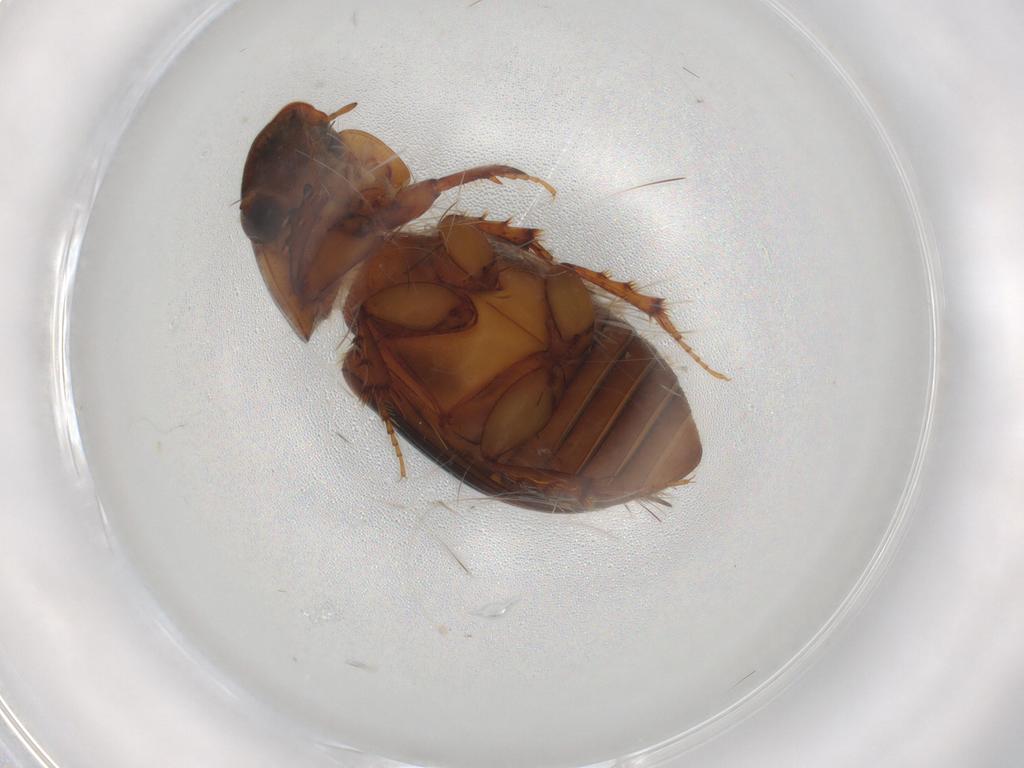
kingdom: Animalia
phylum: Arthropoda
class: Insecta
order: Coleoptera
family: Staphylinidae
